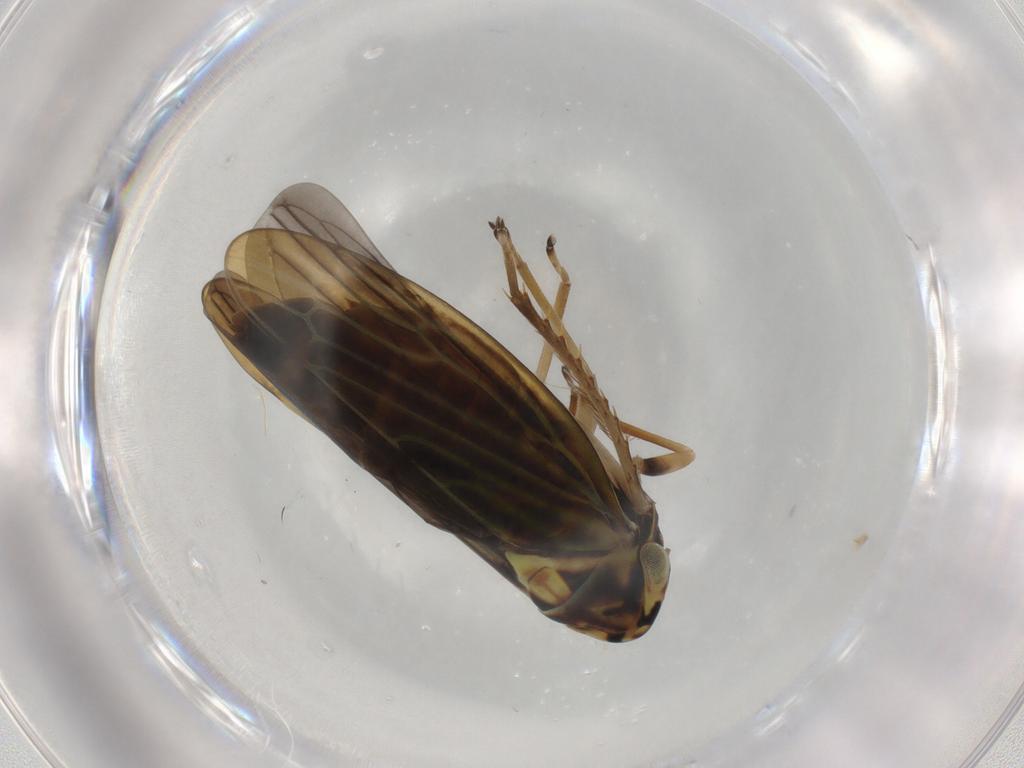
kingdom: Animalia
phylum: Arthropoda
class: Insecta
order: Hemiptera
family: Cicadellidae
